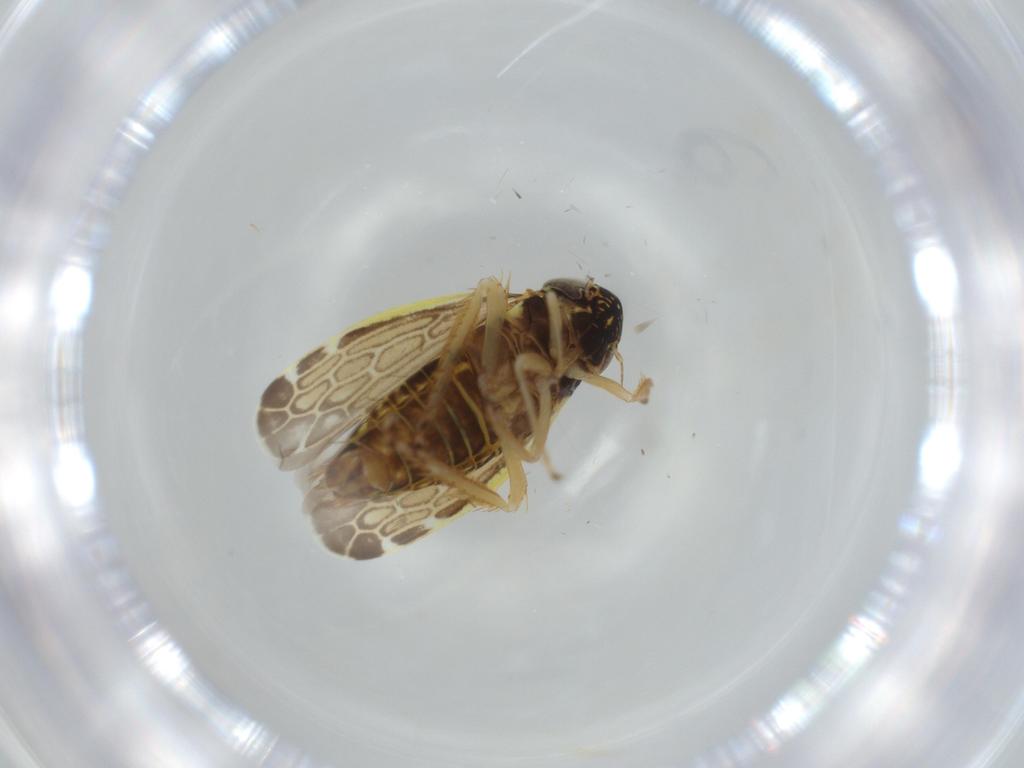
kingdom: Animalia
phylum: Arthropoda
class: Insecta
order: Hemiptera
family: Cicadellidae
